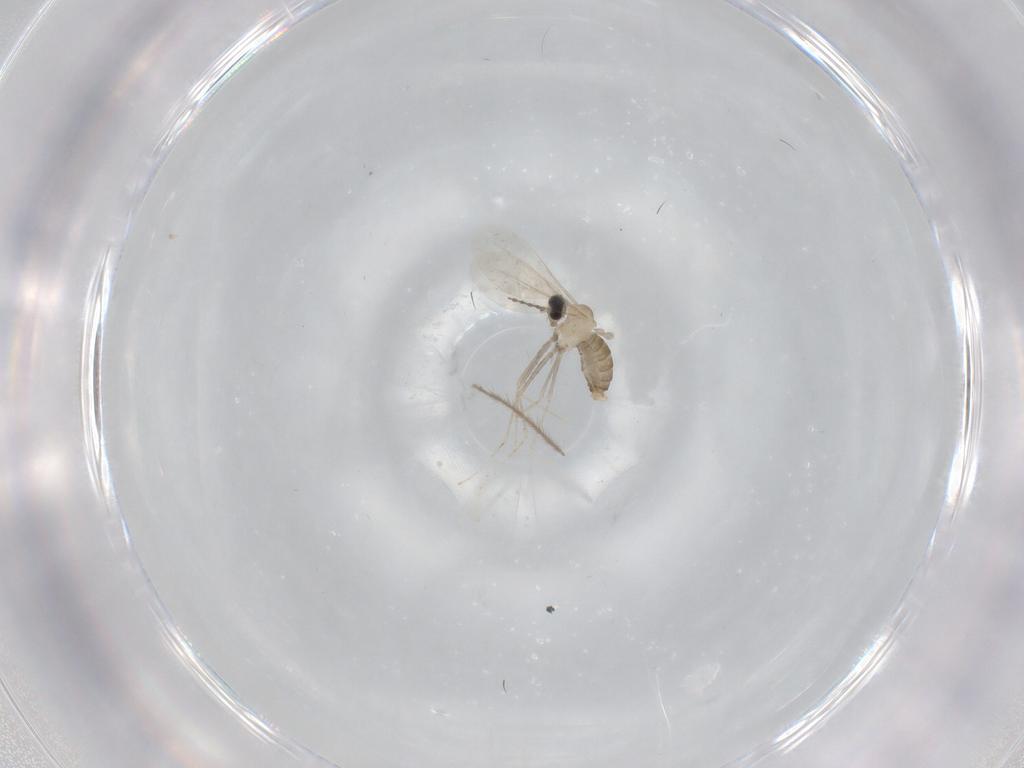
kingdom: Animalia
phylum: Arthropoda
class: Insecta
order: Diptera
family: Cecidomyiidae
